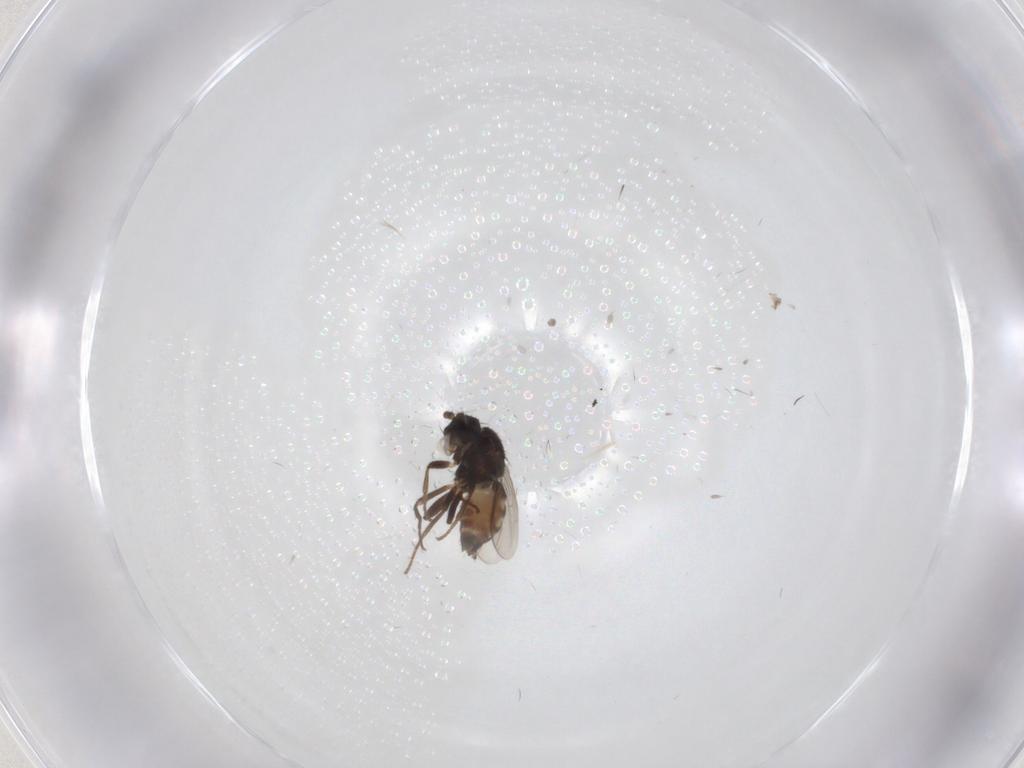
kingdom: Animalia
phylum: Arthropoda
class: Insecta
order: Diptera
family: Sphaeroceridae
